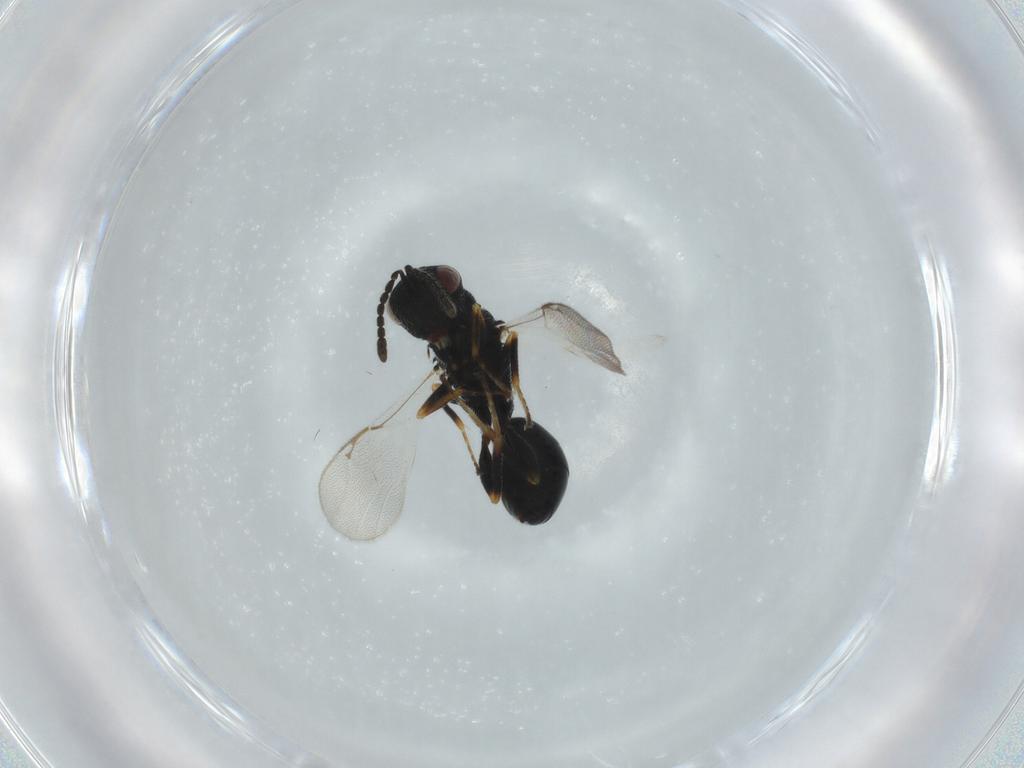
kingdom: Animalia
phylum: Arthropoda
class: Insecta
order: Hymenoptera
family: Eurytomidae
